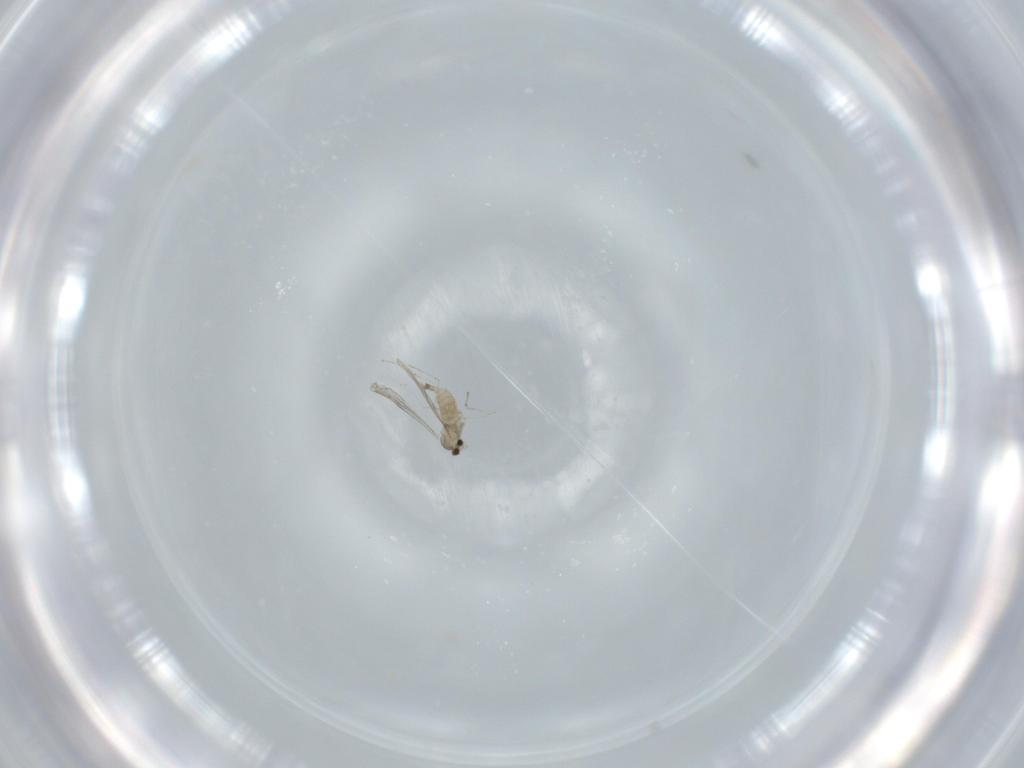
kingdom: Animalia
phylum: Arthropoda
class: Insecta
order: Diptera
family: Cecidomyiidae
